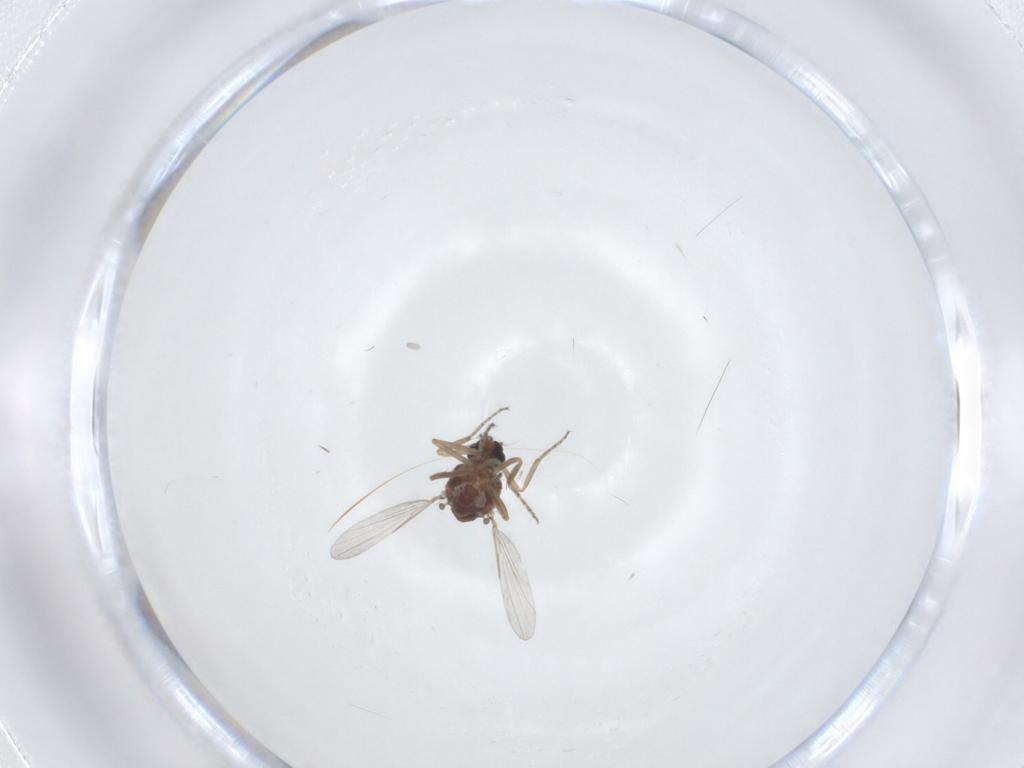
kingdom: Animalia
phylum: Arthropoda
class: Insecta
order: Diptera
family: Ceratopogonidae
